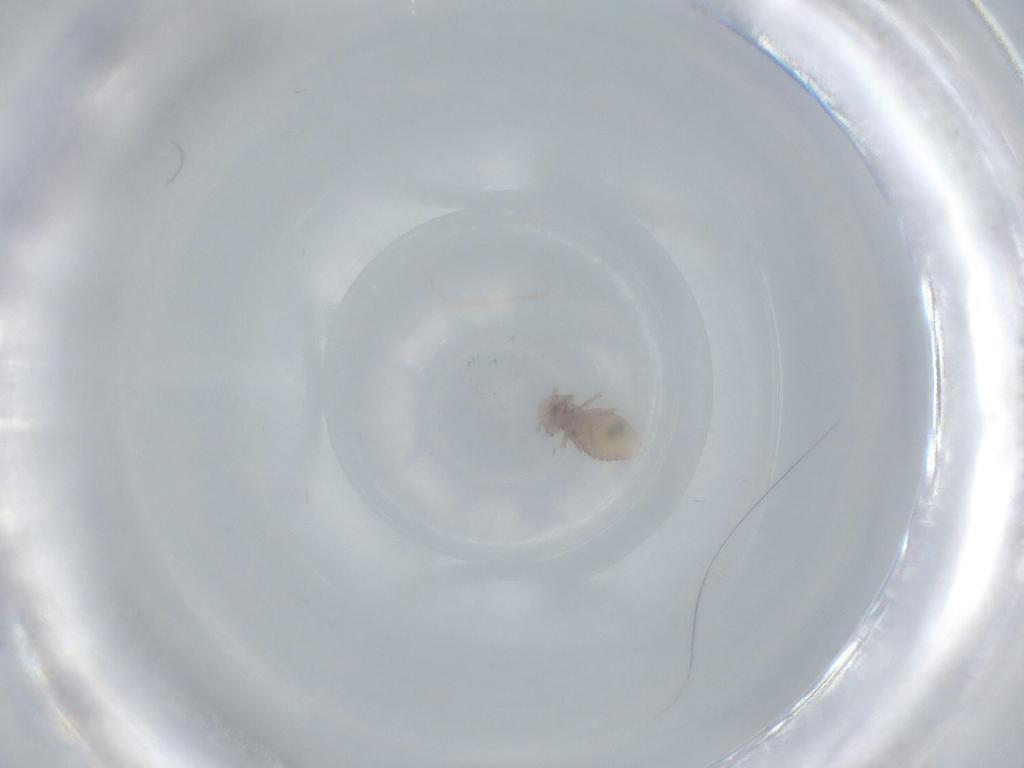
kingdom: Animalia
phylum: Arthropoda
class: Insecta
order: Psocodea
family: Ectopsocidae
